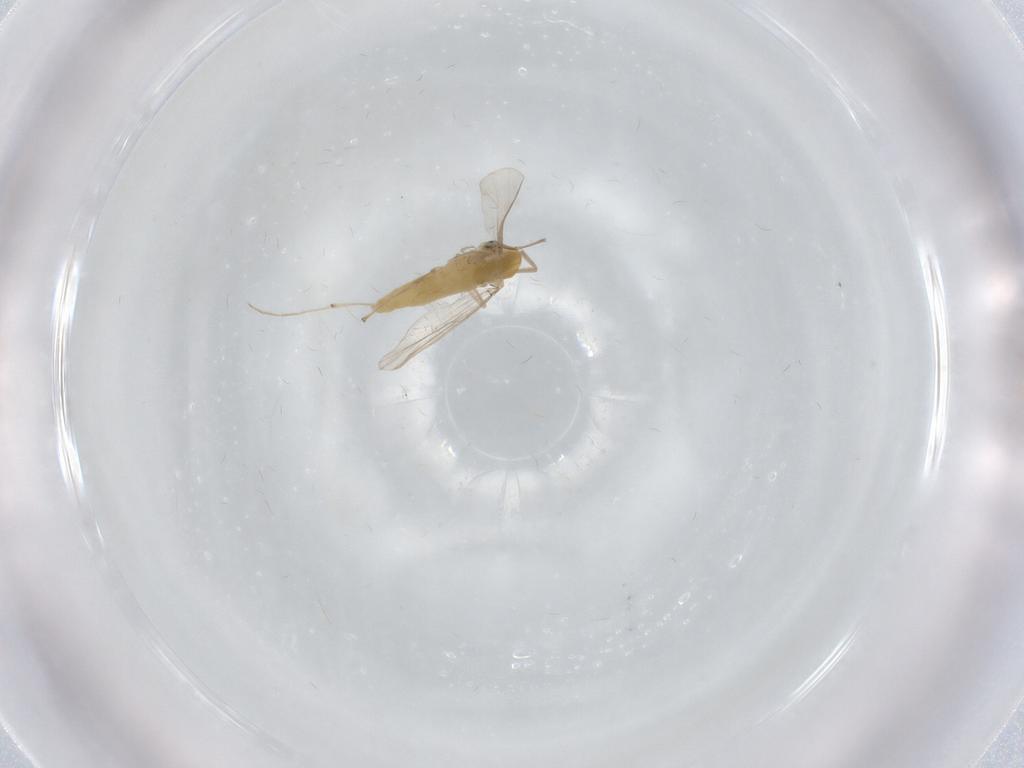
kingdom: Animalia
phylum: Arthropoda
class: Insecta
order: Diptera
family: Chironomidae
